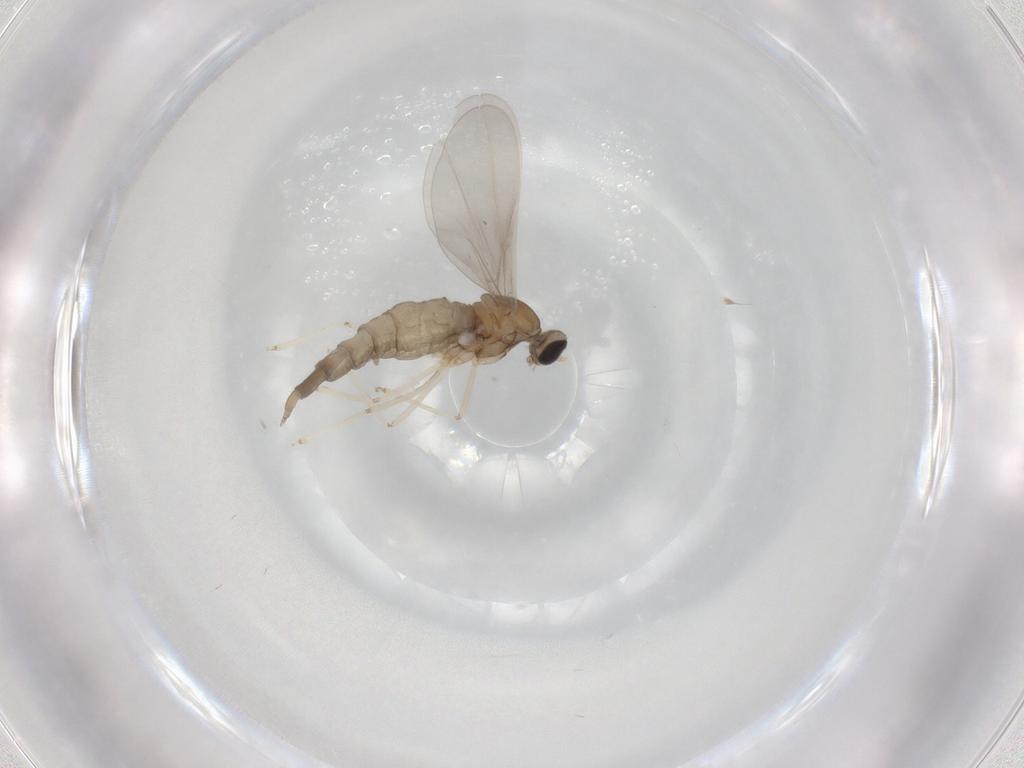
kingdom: Animalia
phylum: Arthropoda
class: Insecta
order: Diptera
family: Cecidomyiidae
